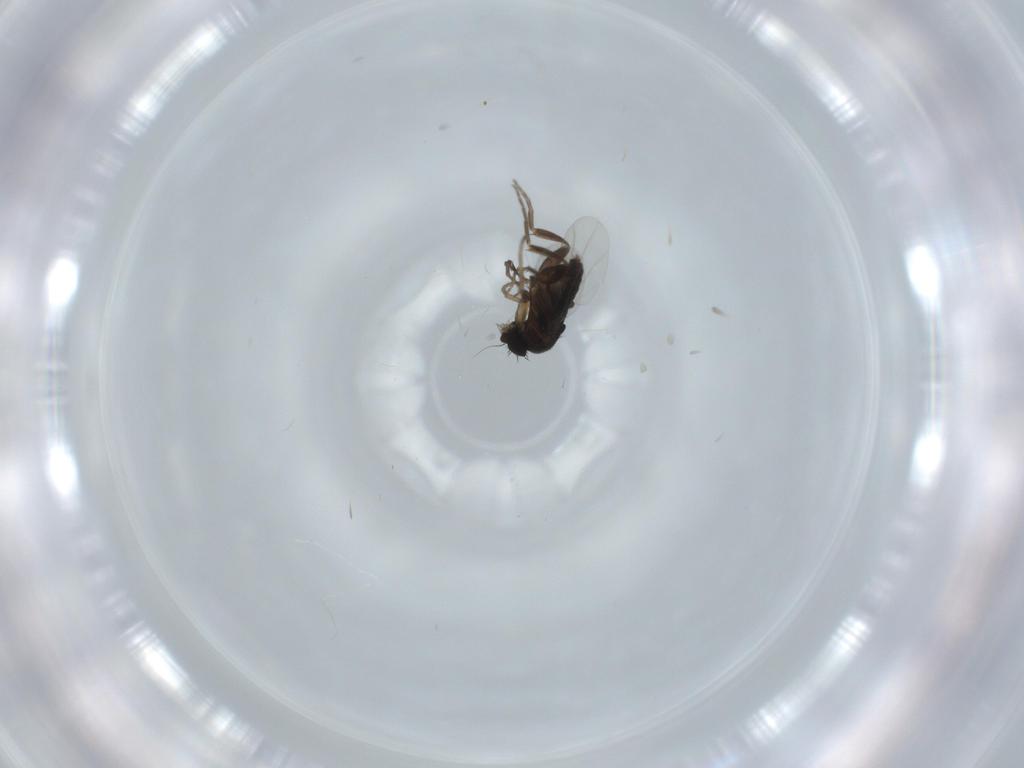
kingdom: Animalia
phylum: Arthropoda
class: Insecta
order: Diptera
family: Phoridae
